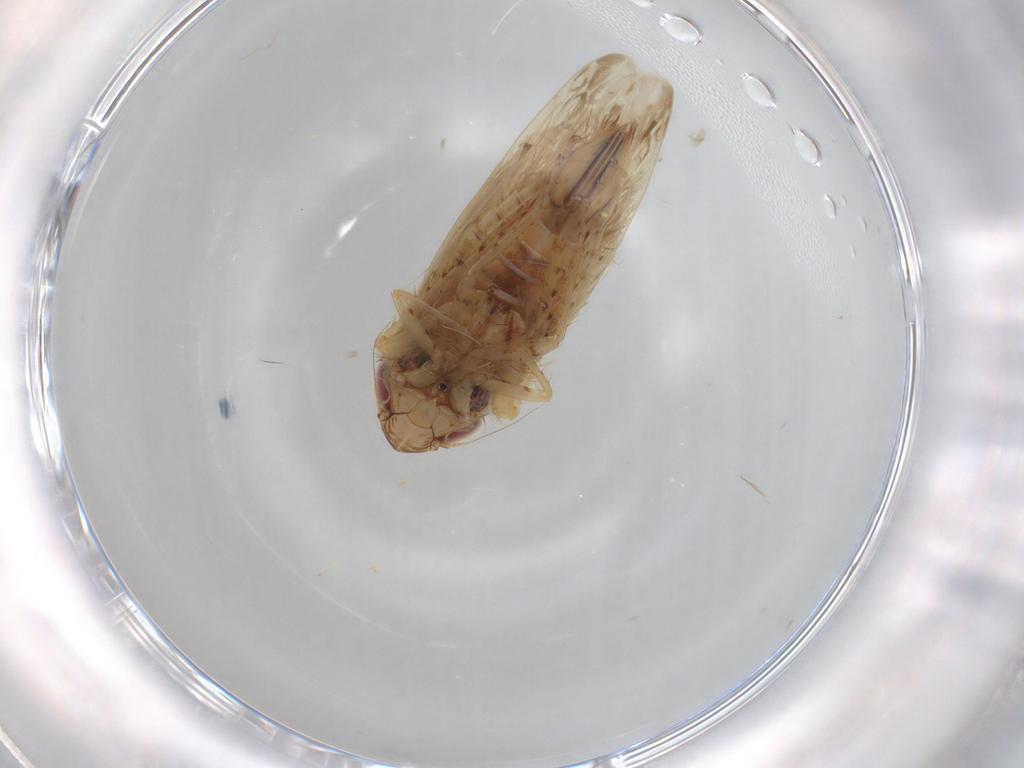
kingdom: Animalia
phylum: Arthropoda
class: Insecta
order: Hemiptera
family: Cicadellidae
